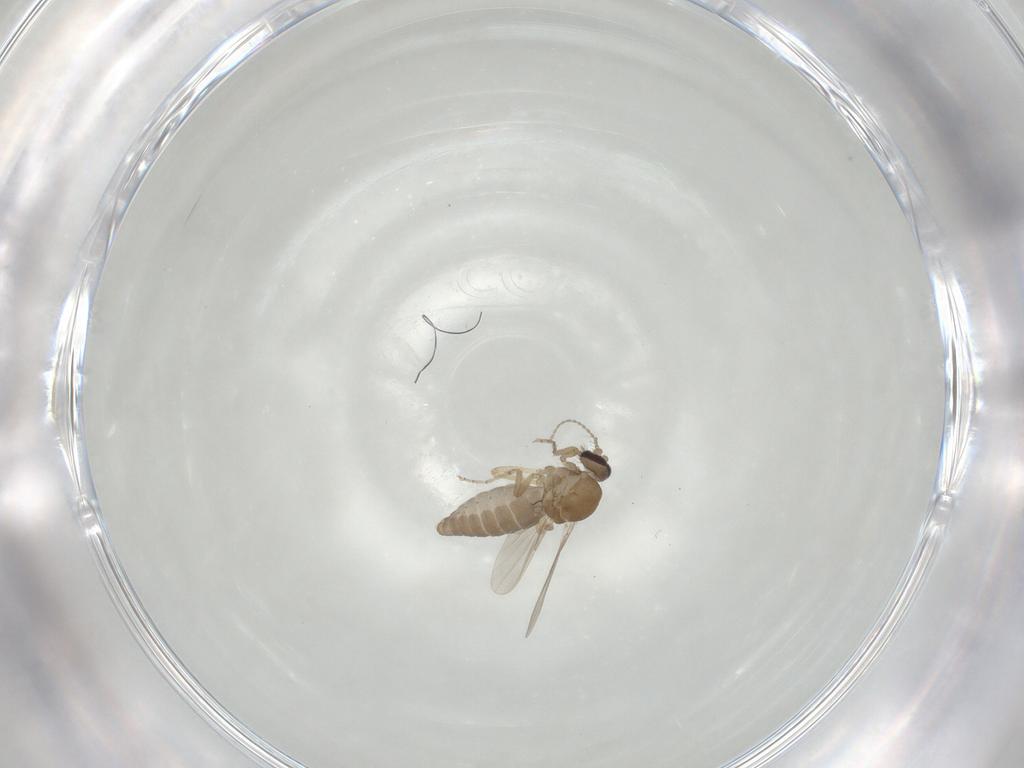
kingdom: Animalia
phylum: Arthropoda
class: Insecta
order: Diptera
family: Ceratopogonidae
